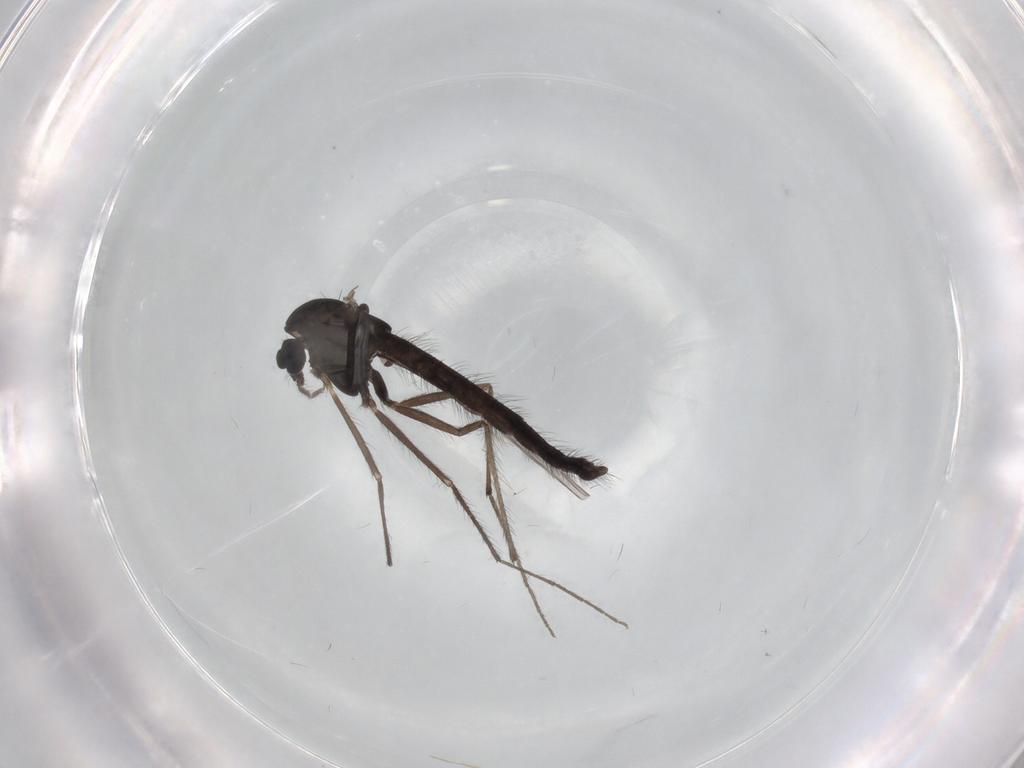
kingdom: Animalia
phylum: Arthropoda
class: Insecta
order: Diptera
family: Chironomidae
